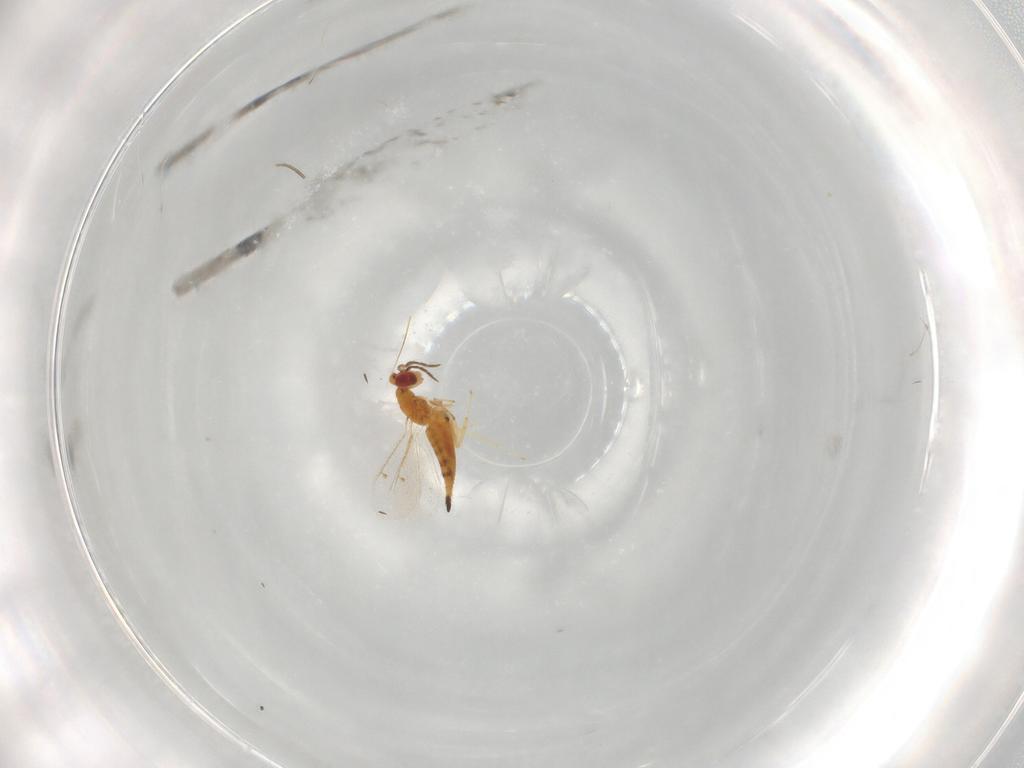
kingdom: Animalia
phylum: Arthropoda
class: Insecta
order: Hymenoptera
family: Eulophidae
